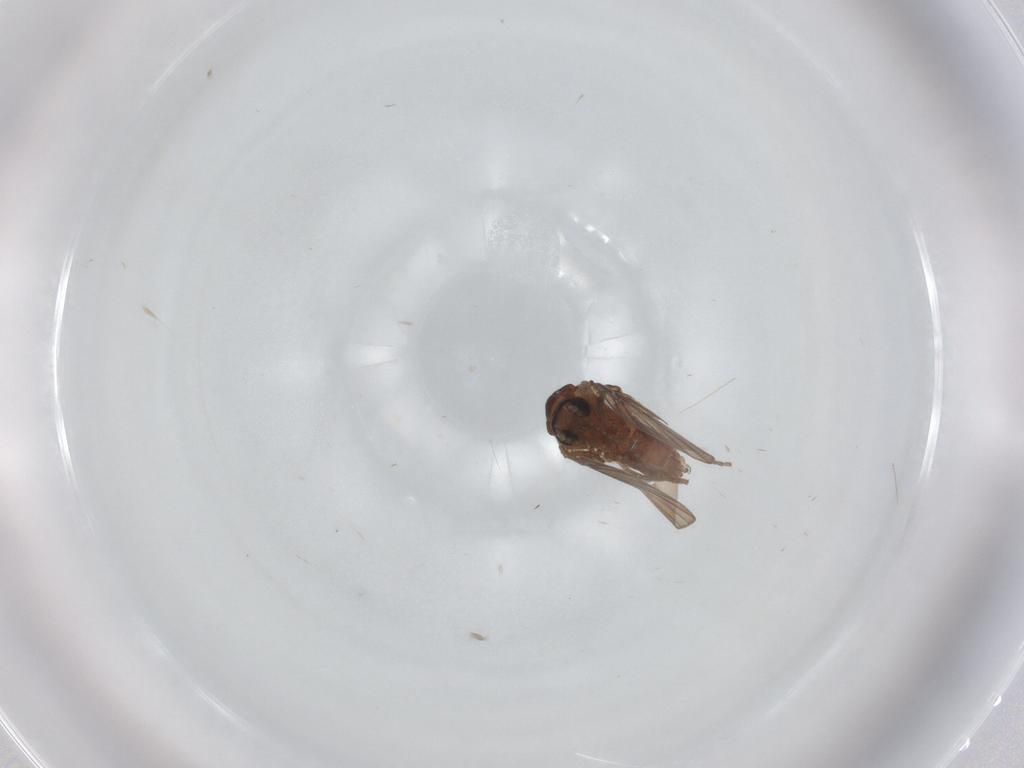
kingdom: Animalia
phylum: Arthropoda
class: Insecta
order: Diptera
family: Psychodidae
